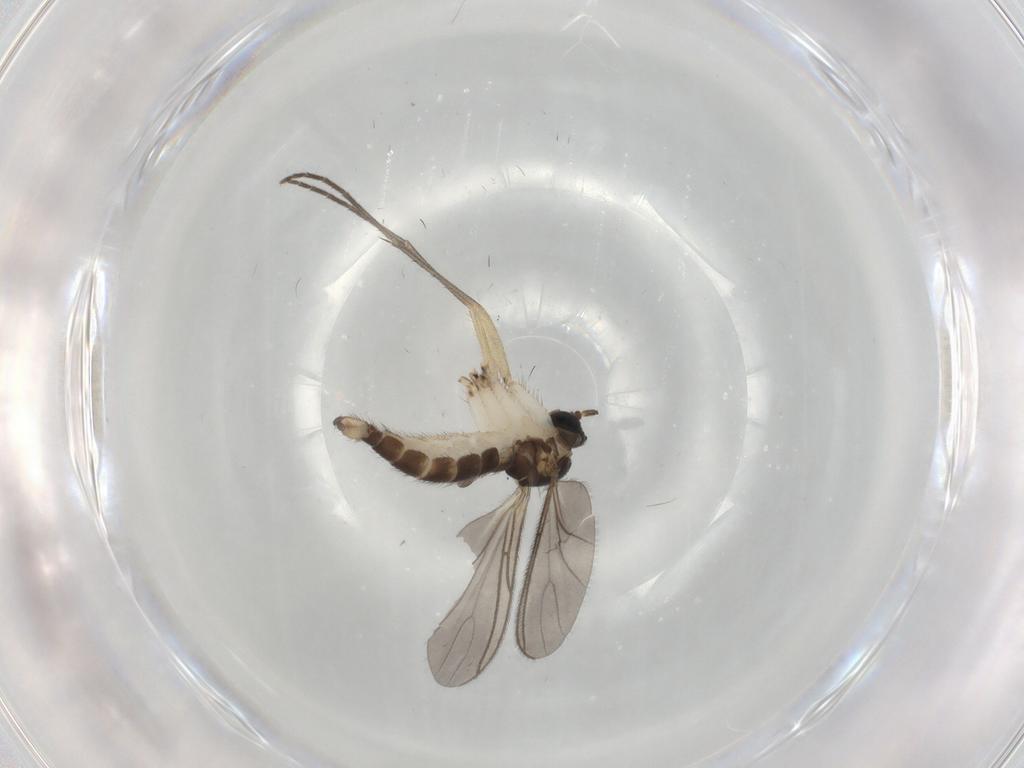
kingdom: Animalia
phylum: Arthropoda
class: Insecta
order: Diptera
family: Sciaridae
